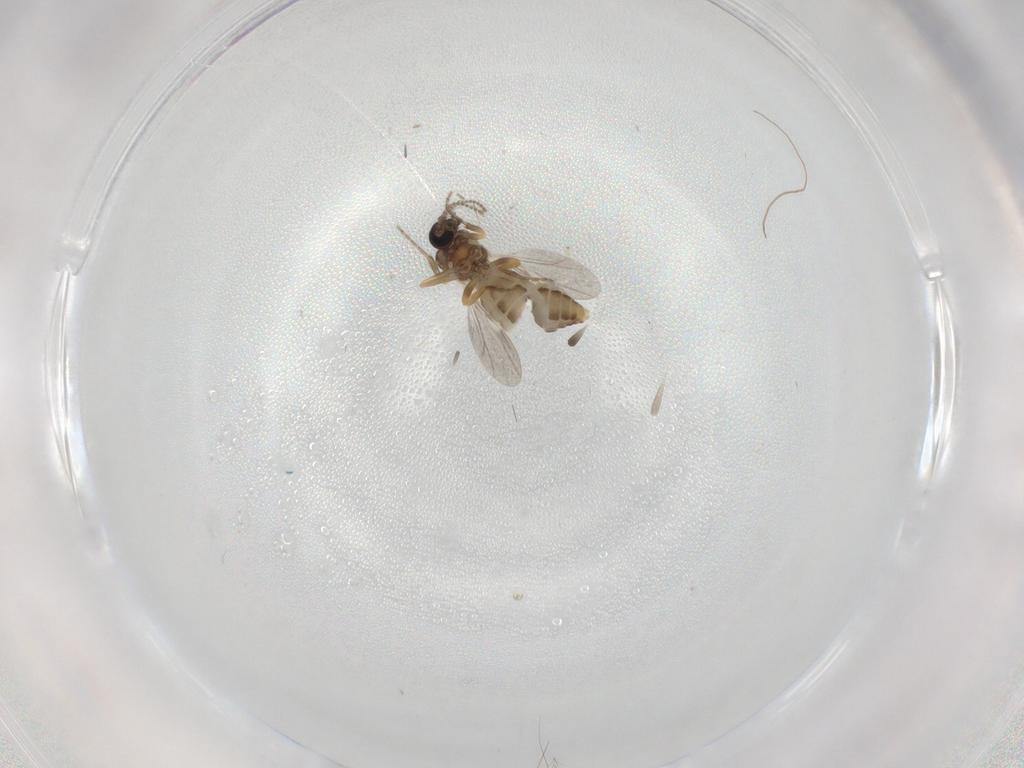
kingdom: Animalia
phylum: Arthropoda
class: Insecta
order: Diptera
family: Ceratopogonidae
